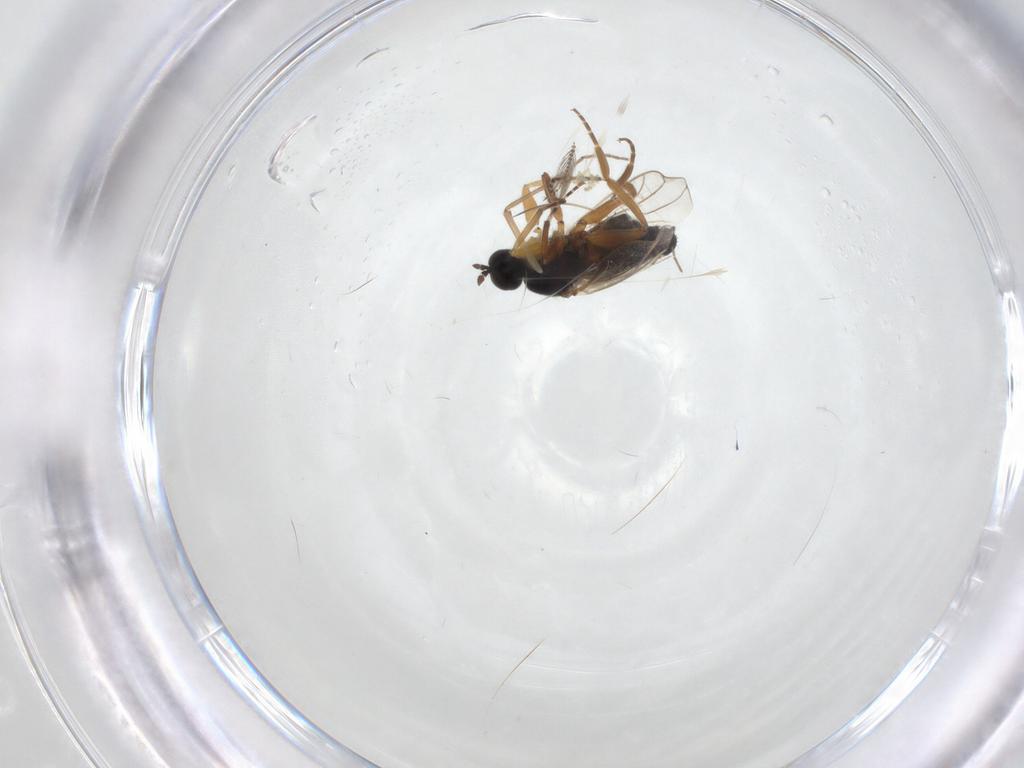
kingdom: Animalia
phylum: Arthropoda
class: Insecta
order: Diptera
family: Hybotidae
